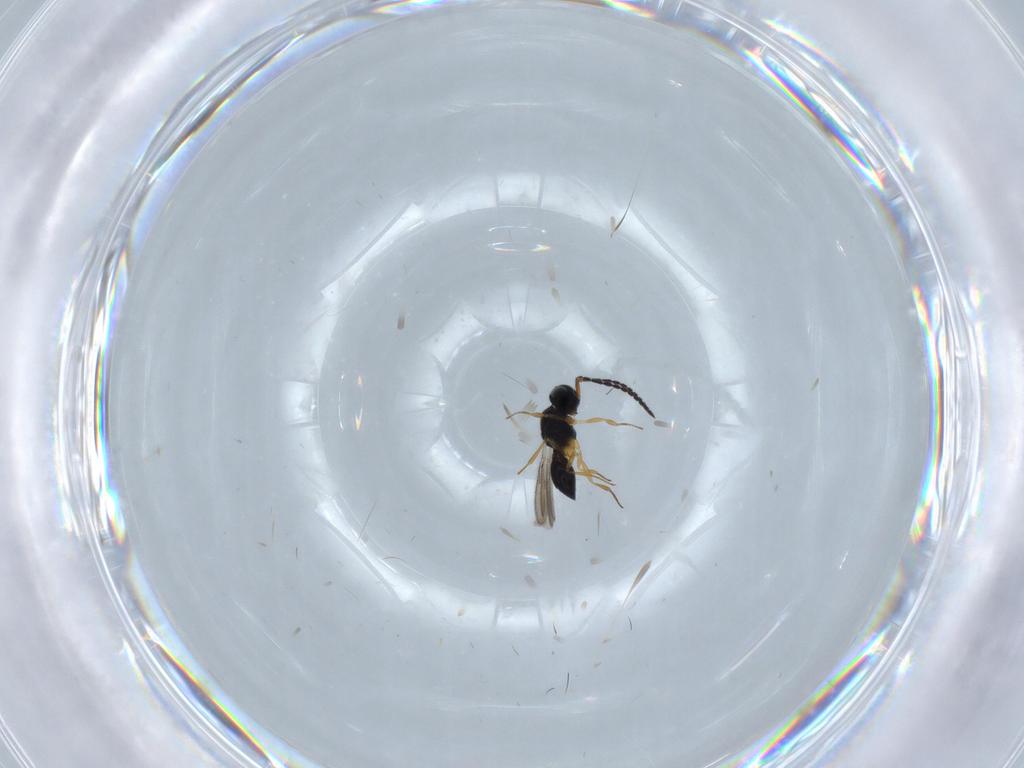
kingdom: Animalia
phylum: Arthropoda
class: Insecta
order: Hymenoptera
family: Scelionidae
